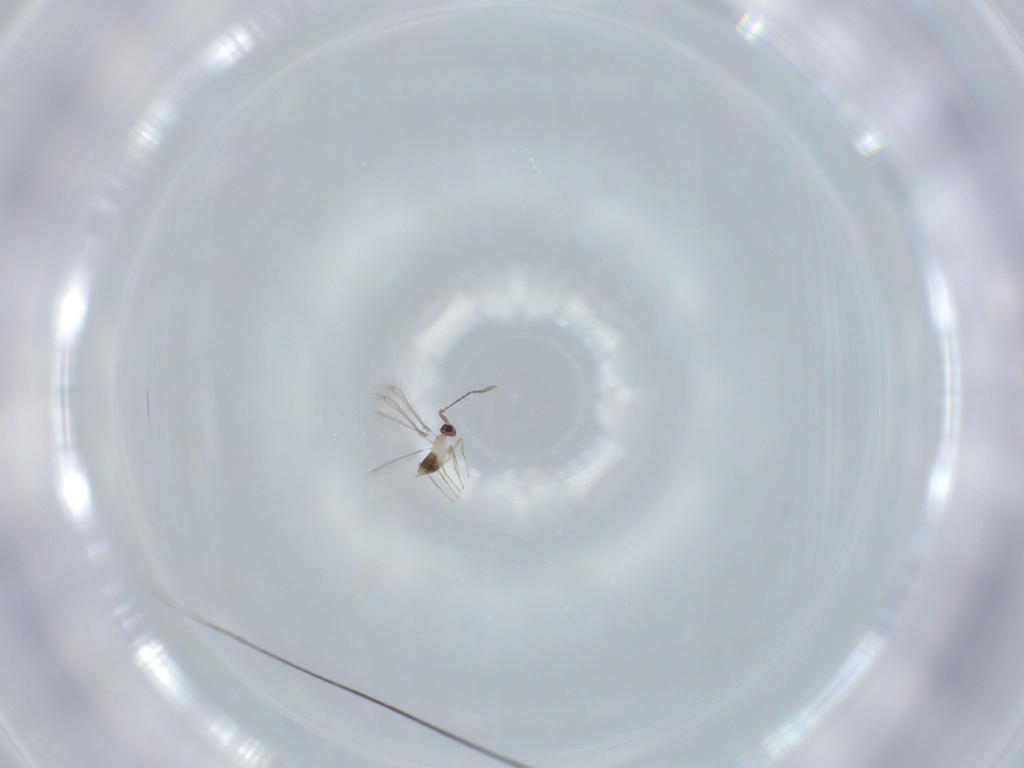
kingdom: Animalia
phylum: Arthropoda
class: Insecta
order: Hymenoptera
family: Mymaridae
